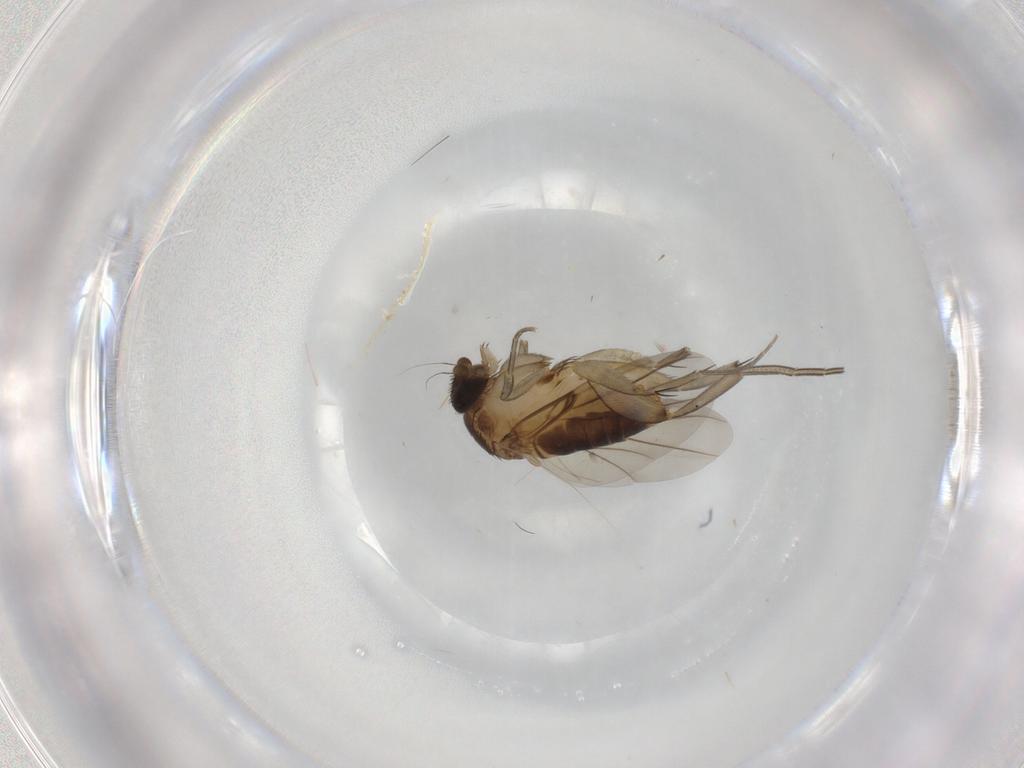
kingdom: Animalia
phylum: Arthropoda
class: Insecta
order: Diptera
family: Phoridae
